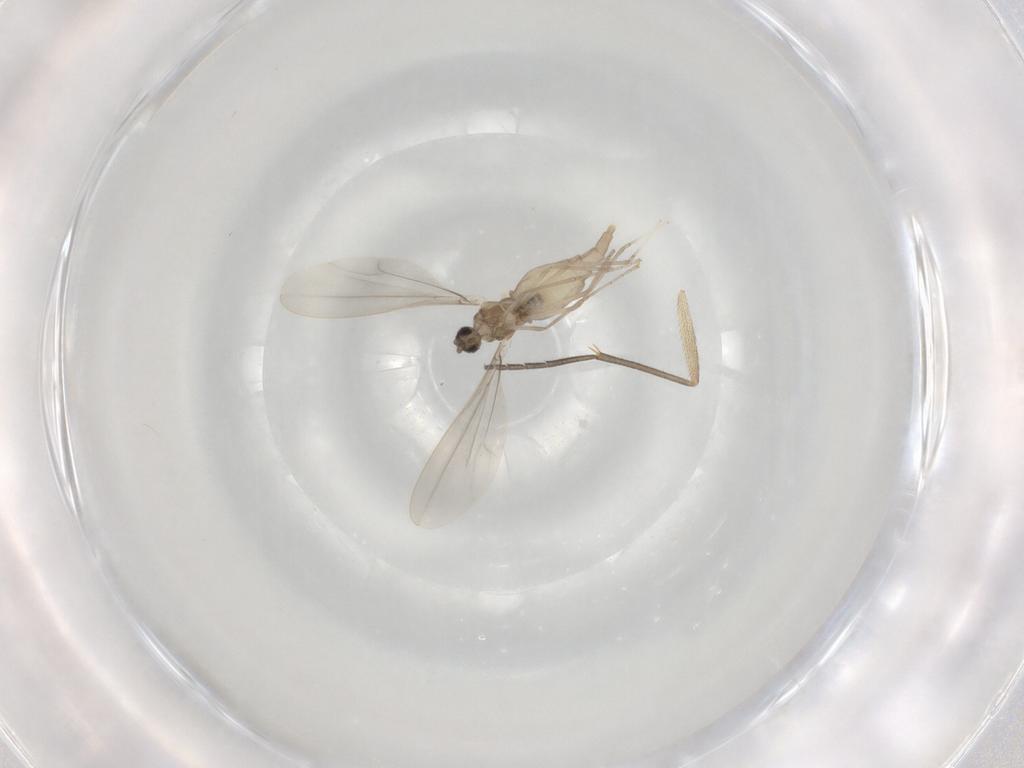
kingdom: Animalia
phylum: Arthropoda
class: Insecta
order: Diptera
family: Cecidomyiidae
